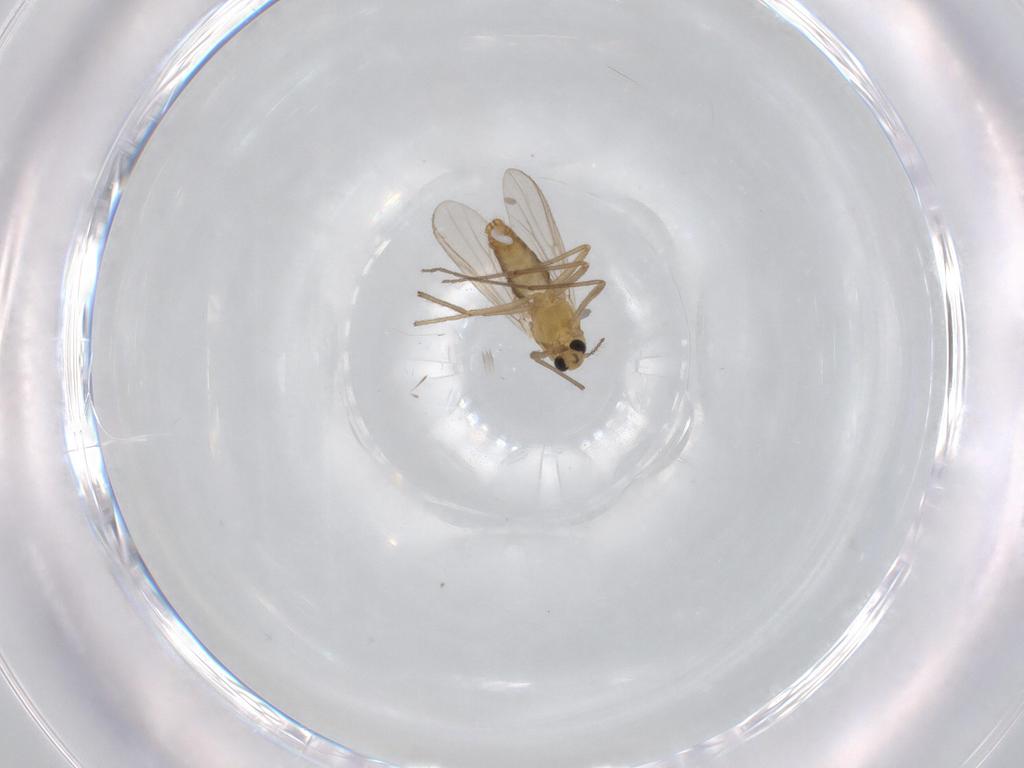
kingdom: Animalia
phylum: Arthropoda
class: Insecta
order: Diptera
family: Chironomidae
